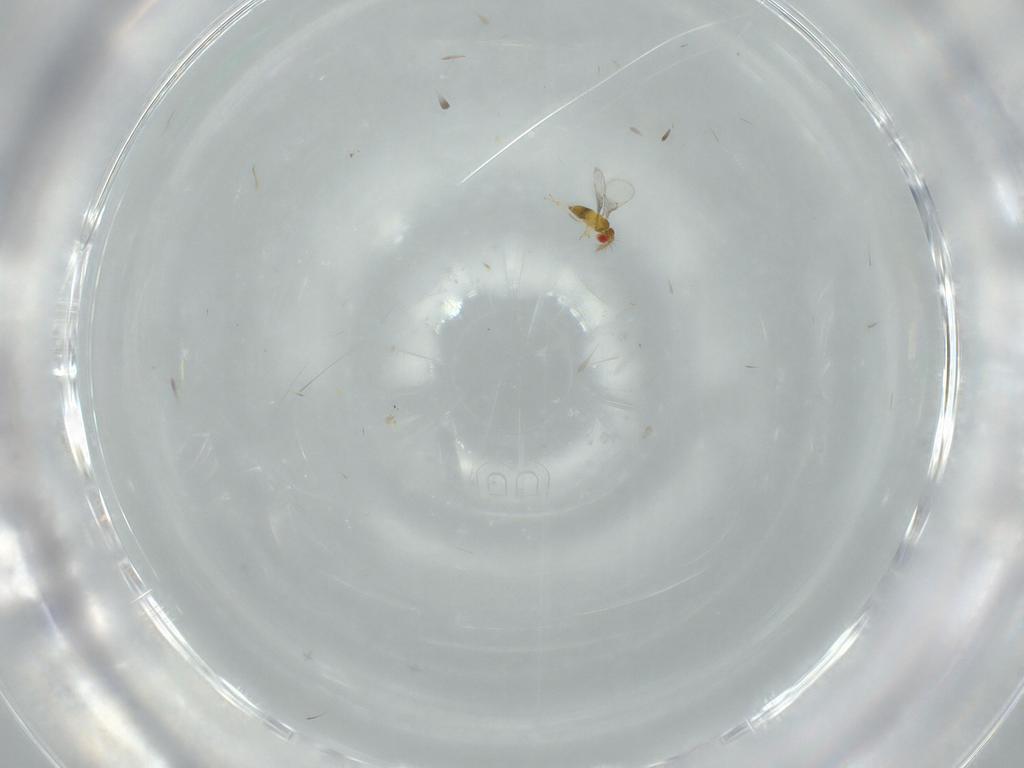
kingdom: Animalia
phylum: Arthropoda
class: Insecta
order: Hymenoptera
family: Trichogrammatidae
